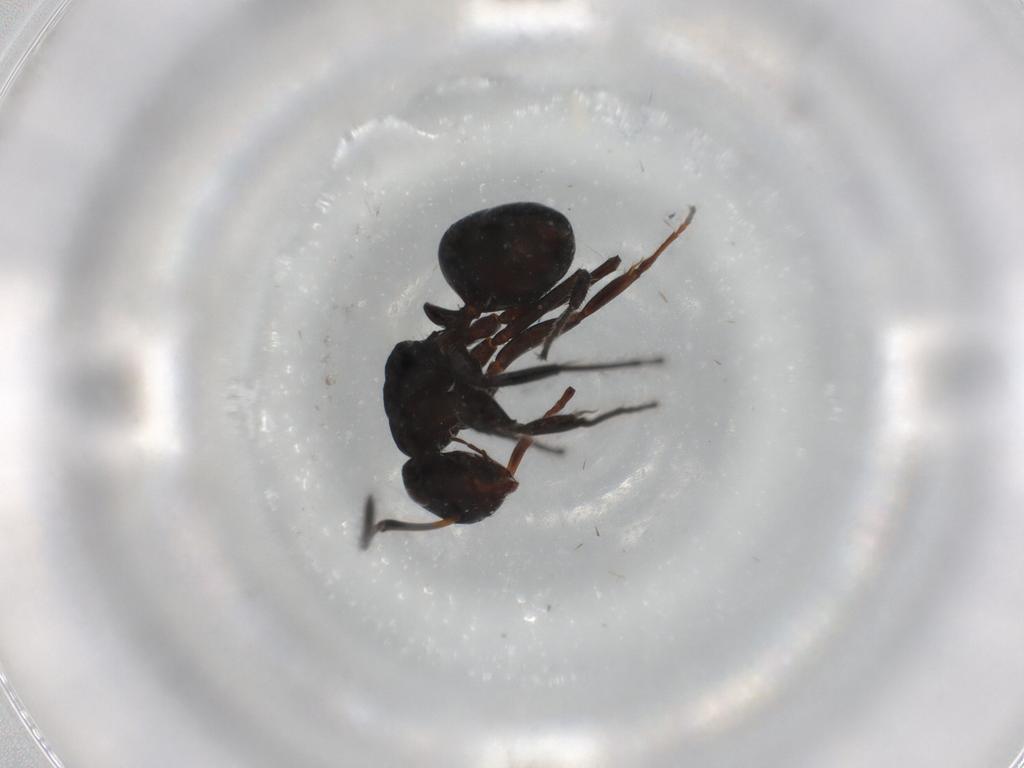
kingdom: Animalia
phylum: Arthropoda
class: Insecta
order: Hymenoptera
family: Formicidae
